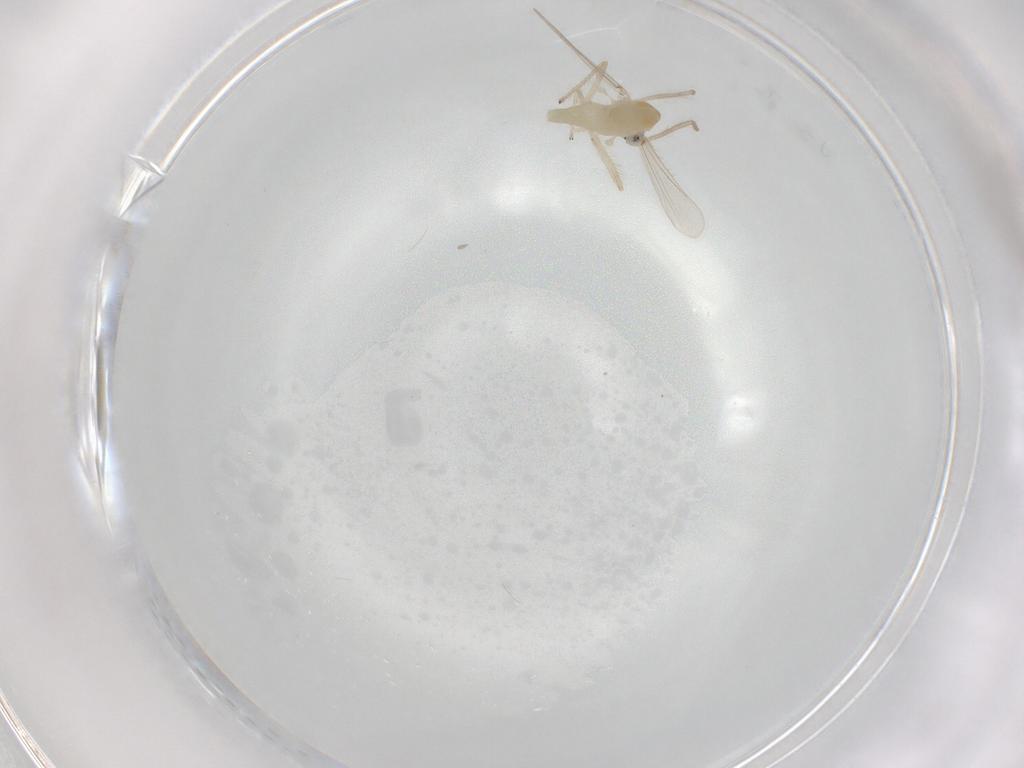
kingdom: Animalia
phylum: Arthropoda
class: Insecta
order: Diptera
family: Chironomidae
